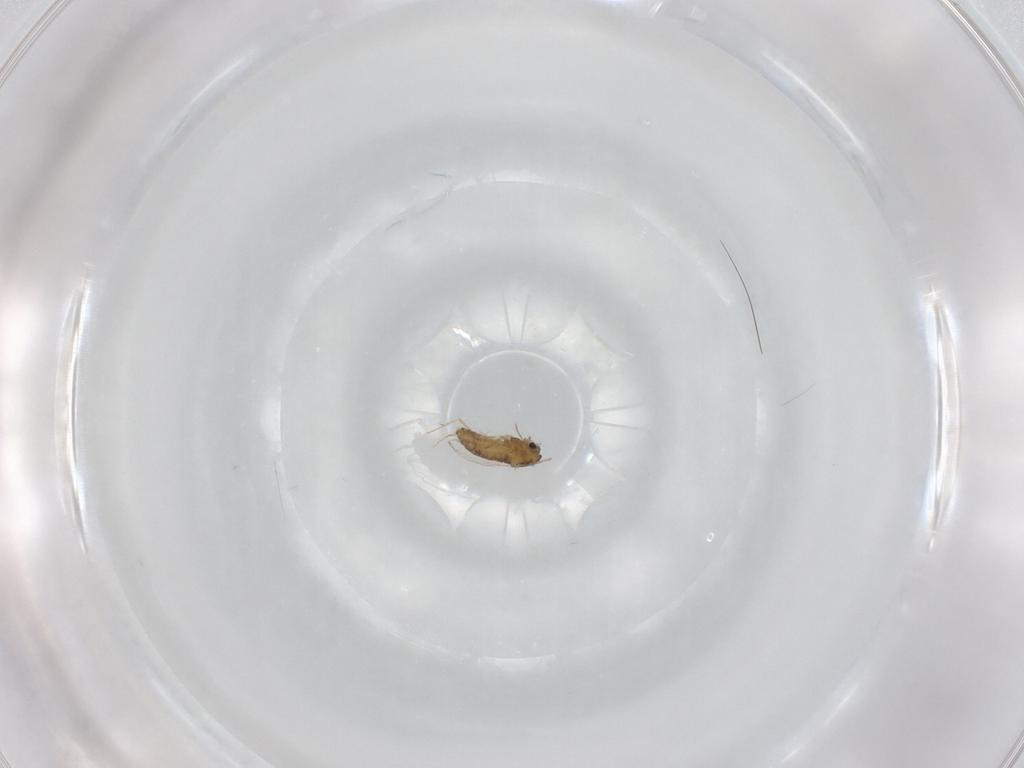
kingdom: Animalia
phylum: Arthropoda
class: Insecta
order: Diptera
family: Chironomidae
